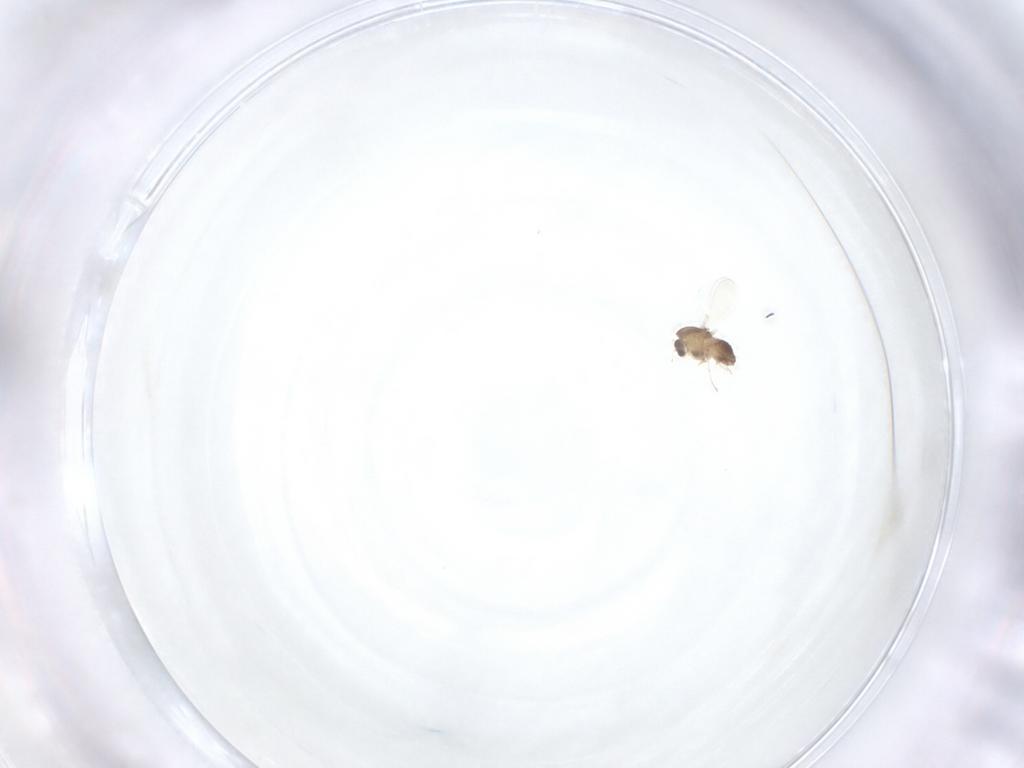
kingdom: Animalia
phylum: Arthropoda
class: Insecta
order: Diptera
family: Chironomidae
